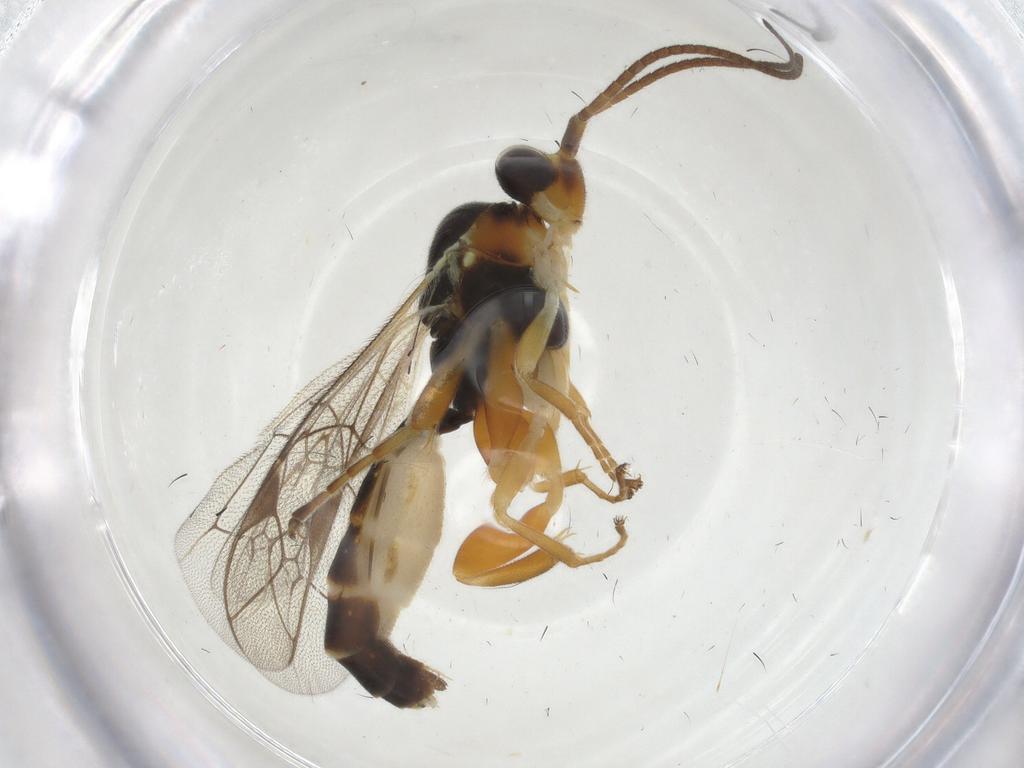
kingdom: Animalia
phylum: Arthropoda
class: Insecta
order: Hymenoptera
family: Ichneumonidae
